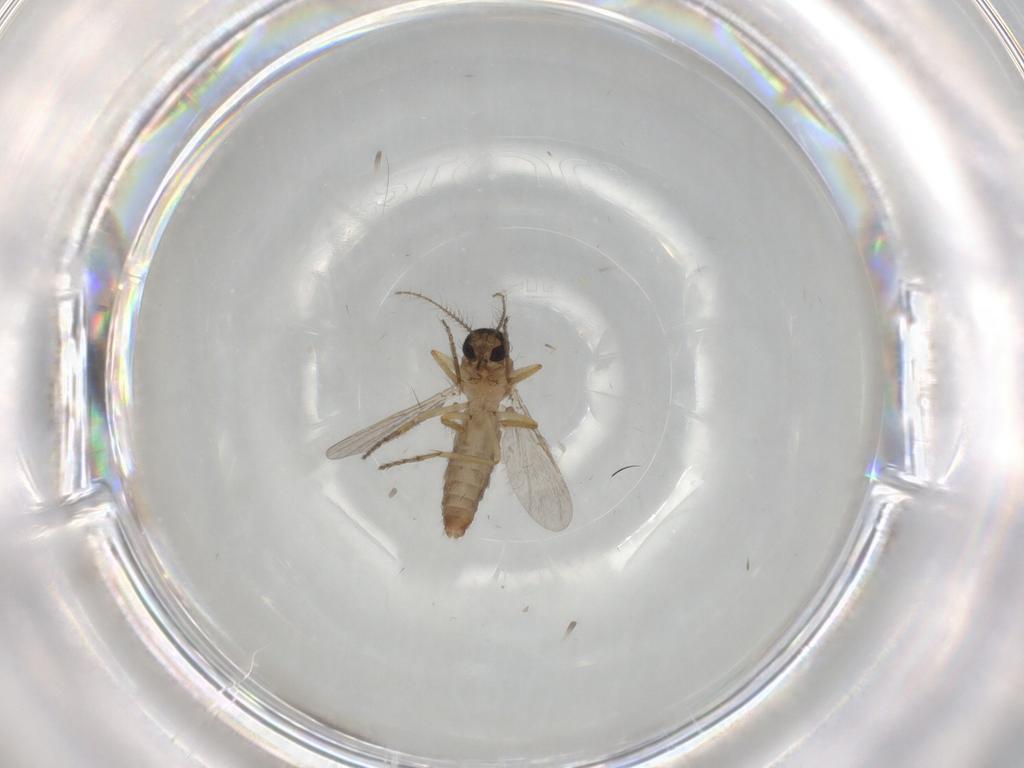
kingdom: Animalia
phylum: Arthropoda
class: Insecta
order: Diptera
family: Ceratopogonidae
